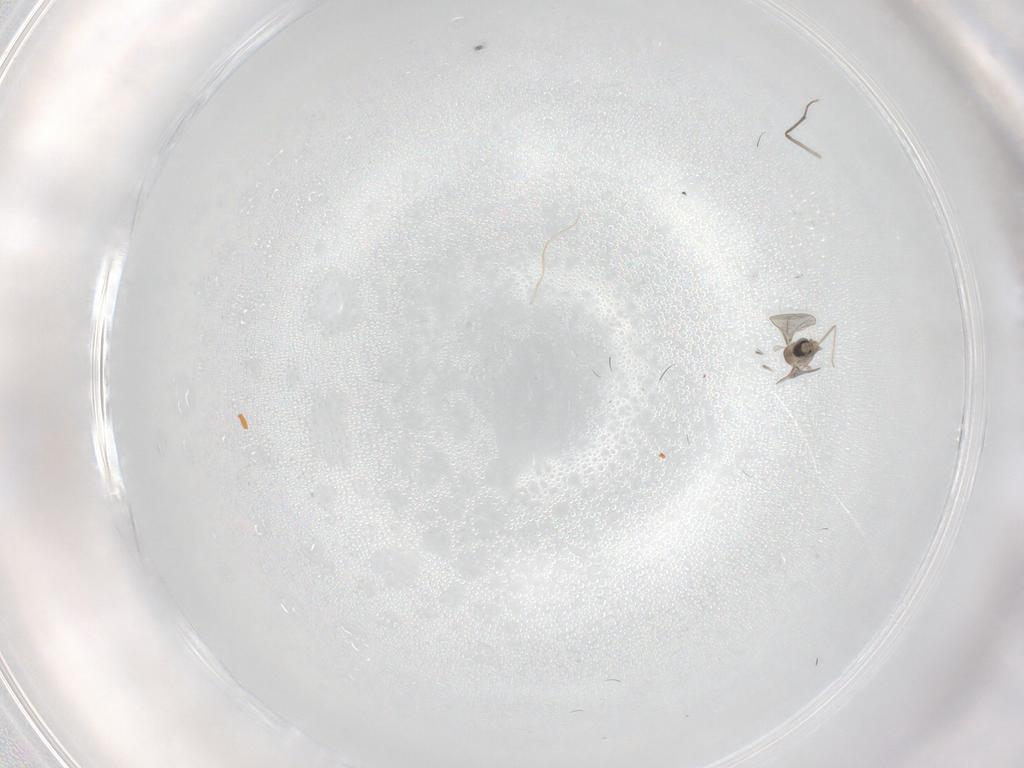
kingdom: Animalia
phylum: Arthropoda
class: Insecta
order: Diptera
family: Cecidomyiidae
